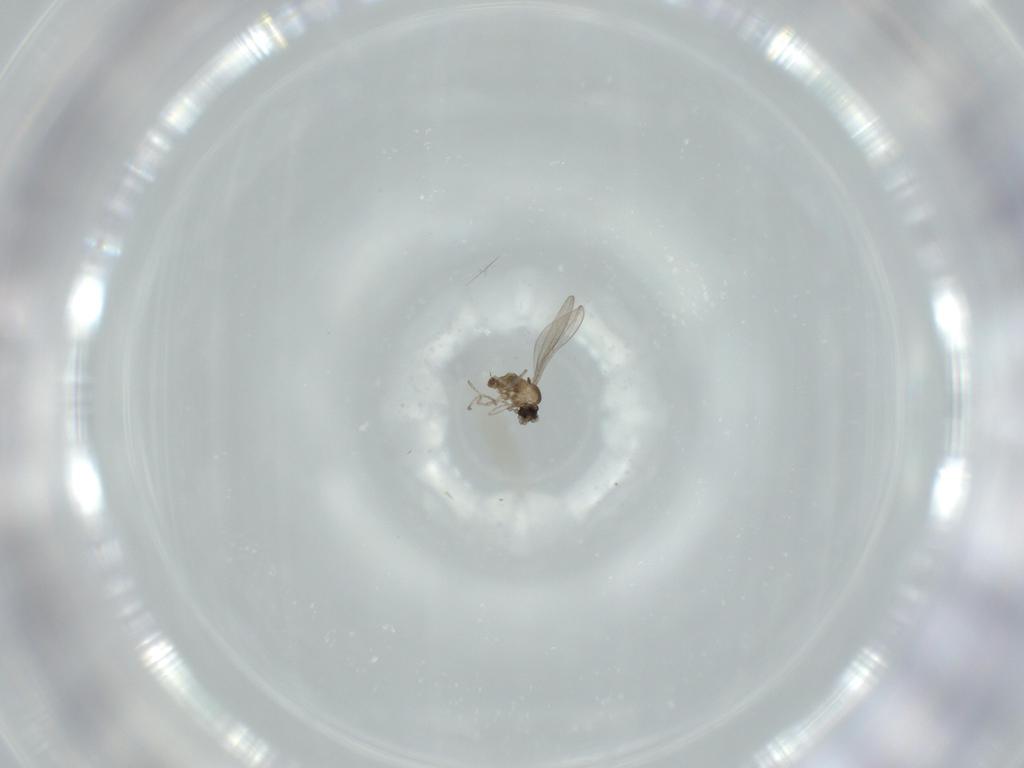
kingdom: Animalia
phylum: Arthropoda
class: Insecta
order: Diptera
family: Cecidomyiidae
